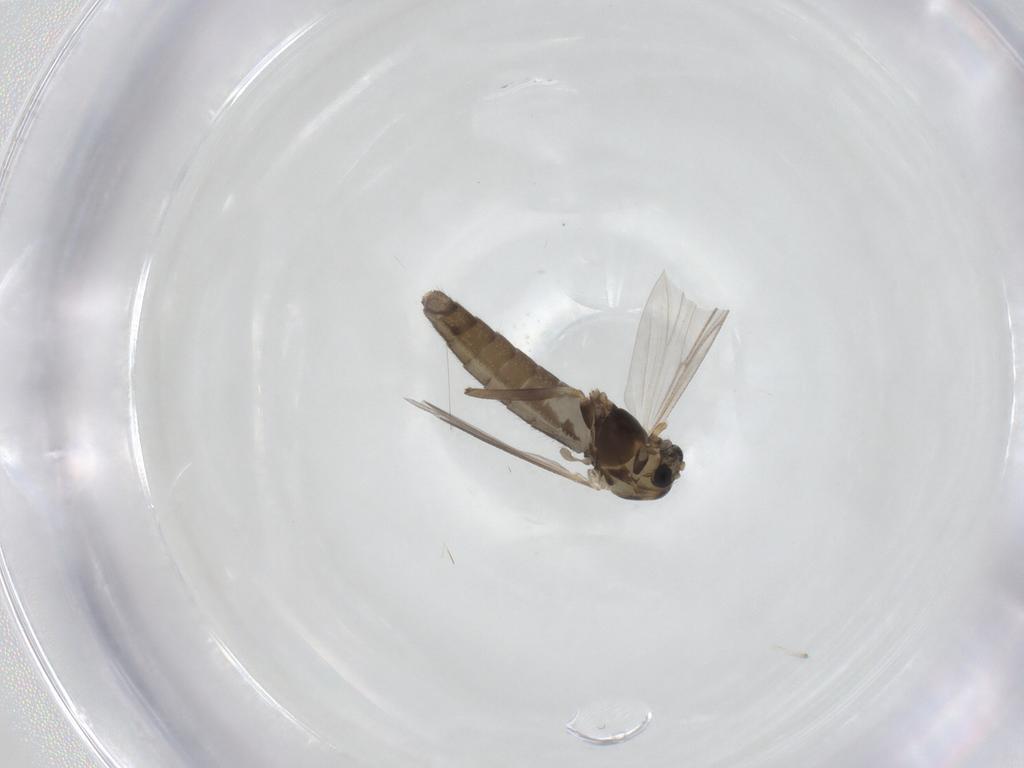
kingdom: Animalia
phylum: Arthropoda
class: Insecta
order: Diptera
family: Chironomidae
